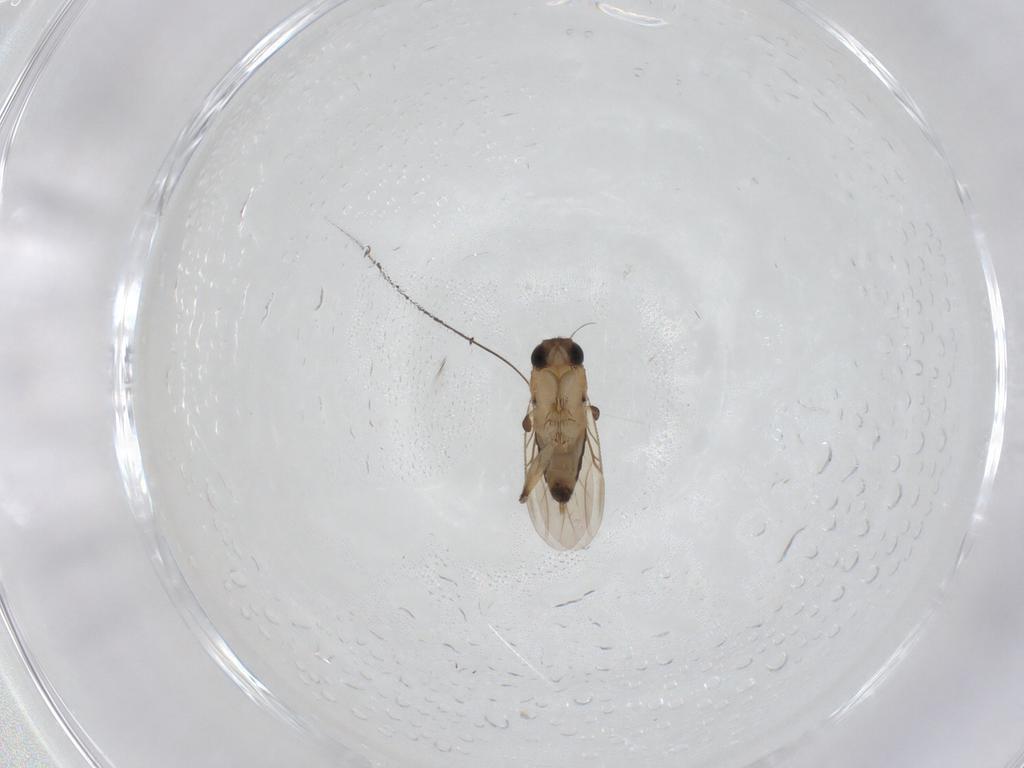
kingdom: Animalia
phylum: Arthropoda
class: Insecta
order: Diptera
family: Phoridae
